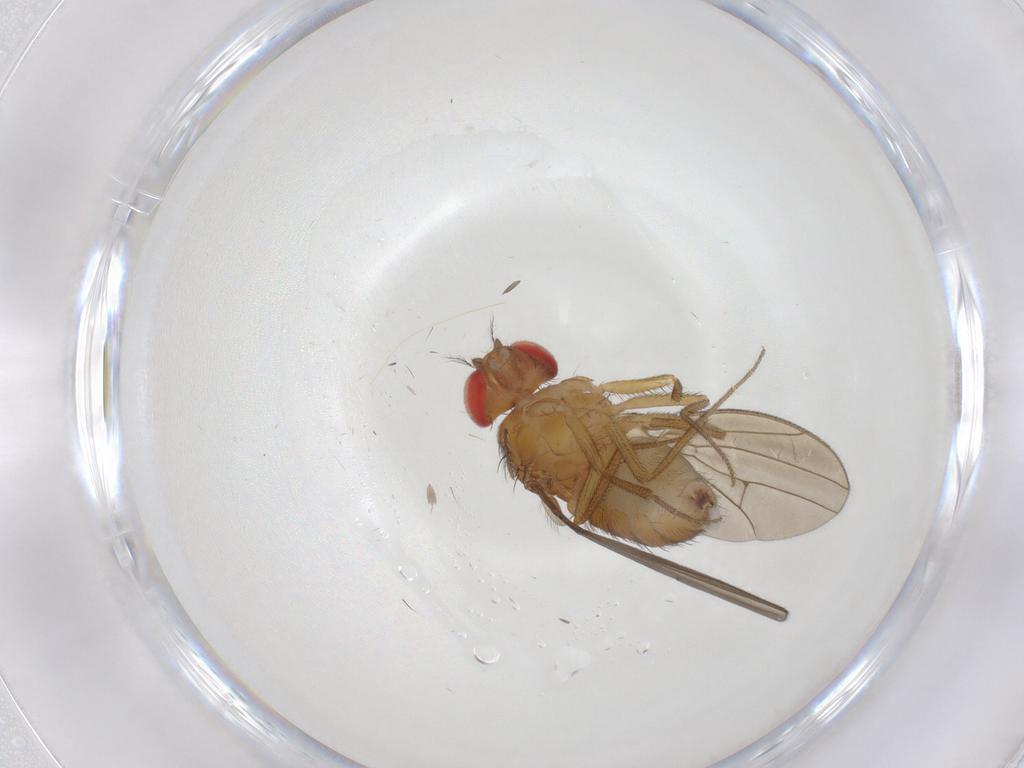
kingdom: Animalia
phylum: Arthropoda
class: Insecta
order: Diptera
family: Drosophilidae
